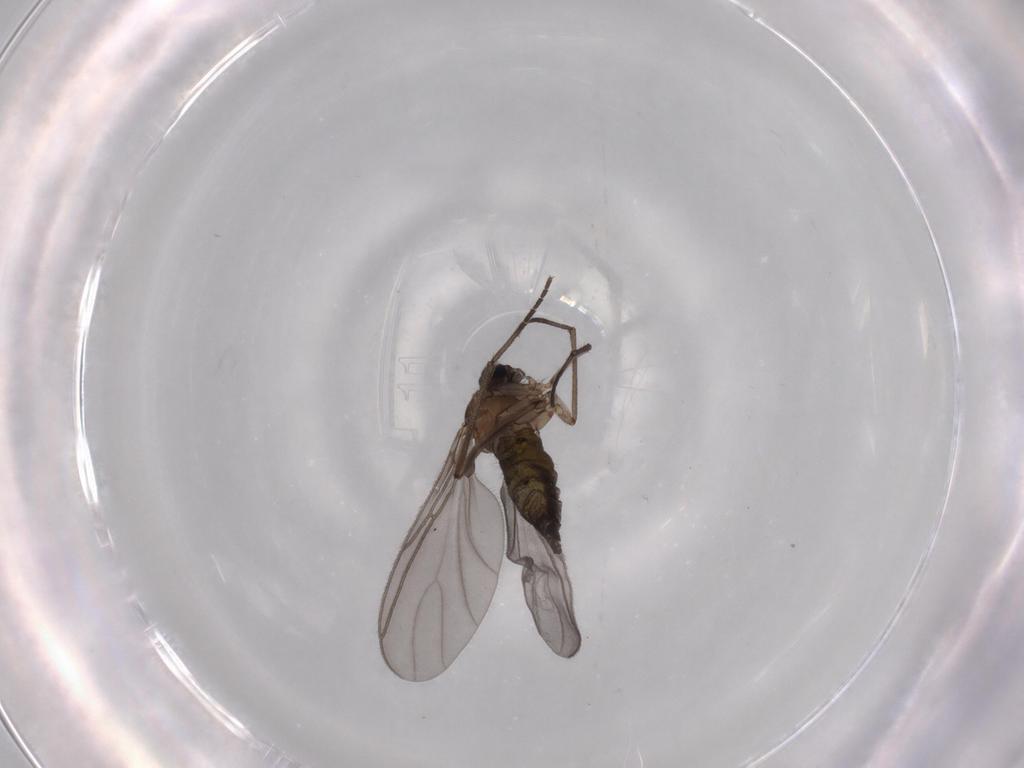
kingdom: Animalia
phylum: Arthropoda
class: Insecta
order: Diptera
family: Sciaridae
